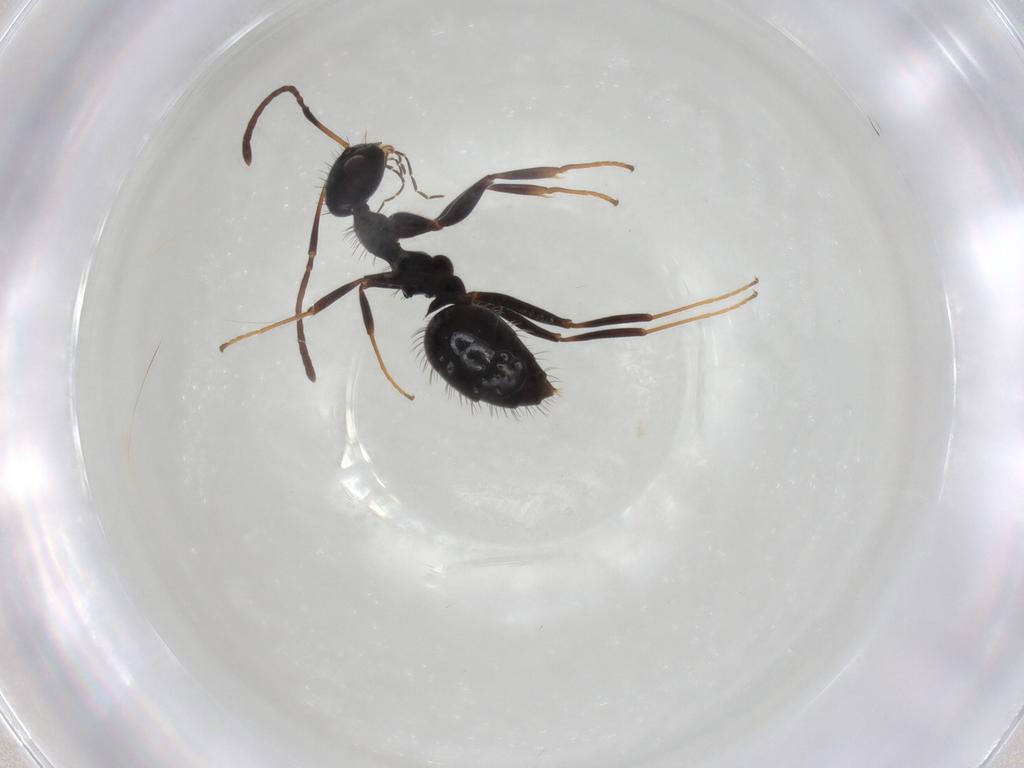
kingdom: Animalia
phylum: Arthropoda
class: Insecta
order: Hymenoptera
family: Formicidae
